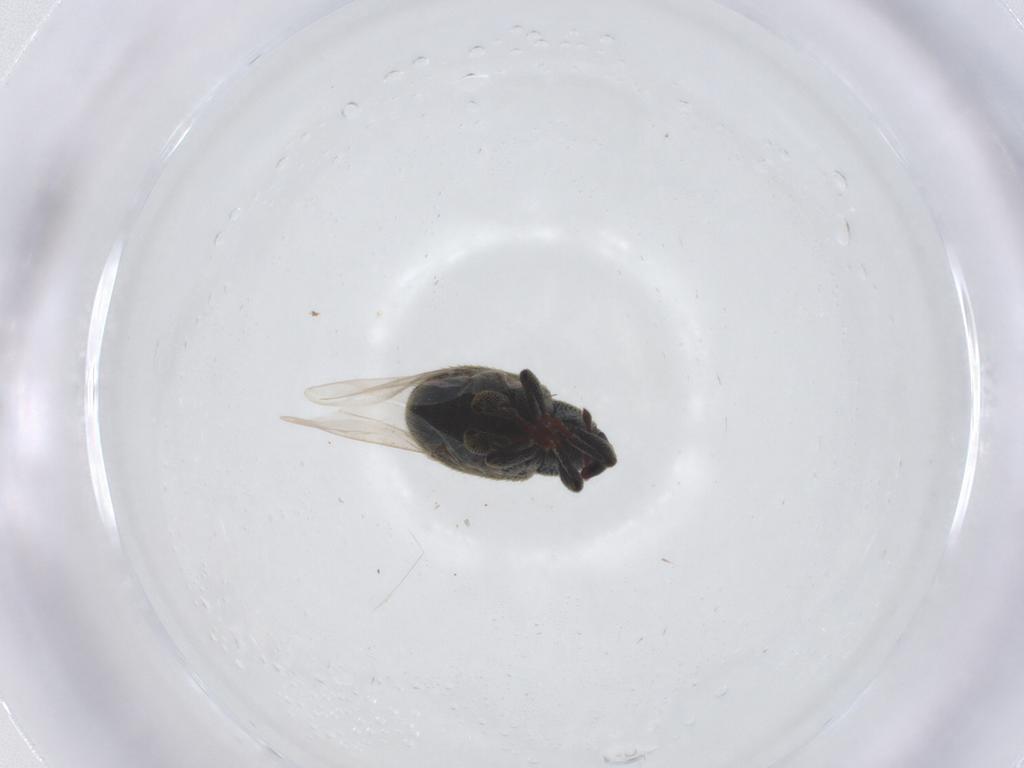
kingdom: Animalia
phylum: Arthropoda
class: Insecta
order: Coleoptera
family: Curculionidae
